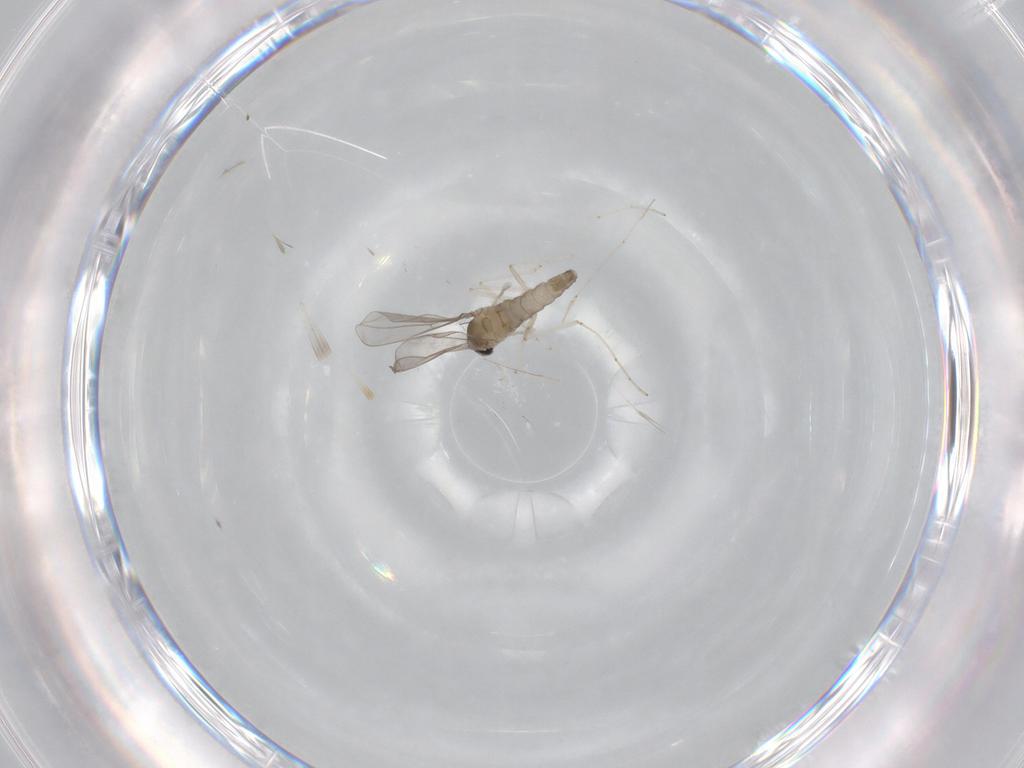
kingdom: Animalia
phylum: Arthropoda
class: Insecta
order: Diptera
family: Cecidomyiidae
